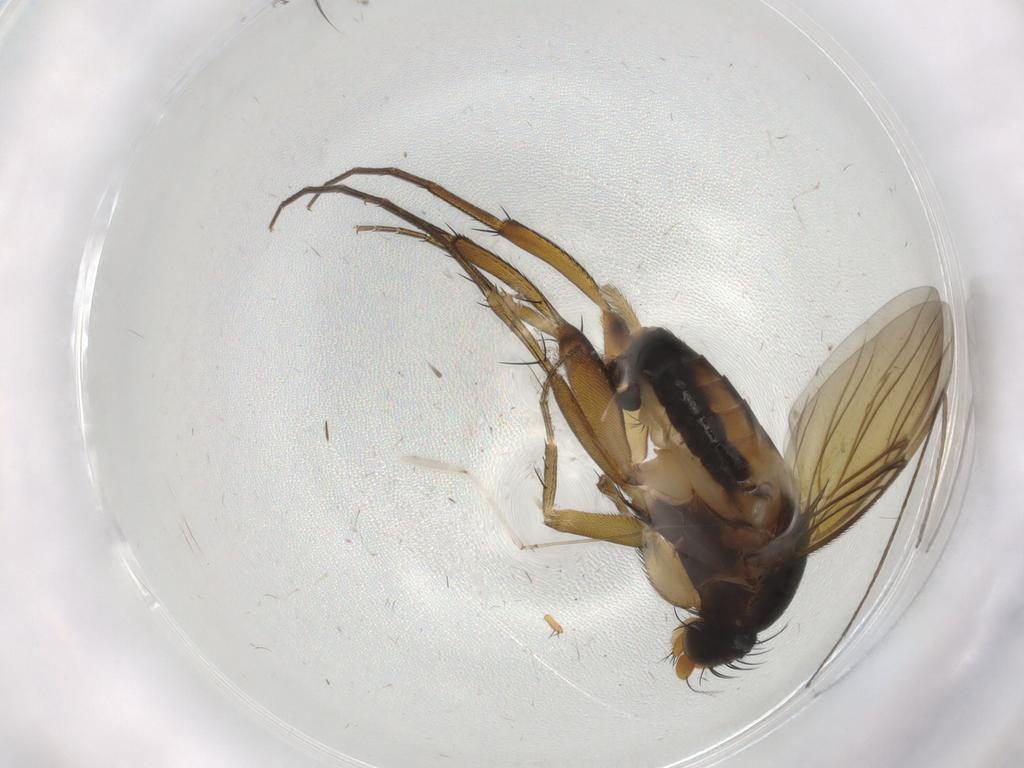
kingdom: Animalia
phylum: Arthropoda
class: Insecta
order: Diptera
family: Phoridae
